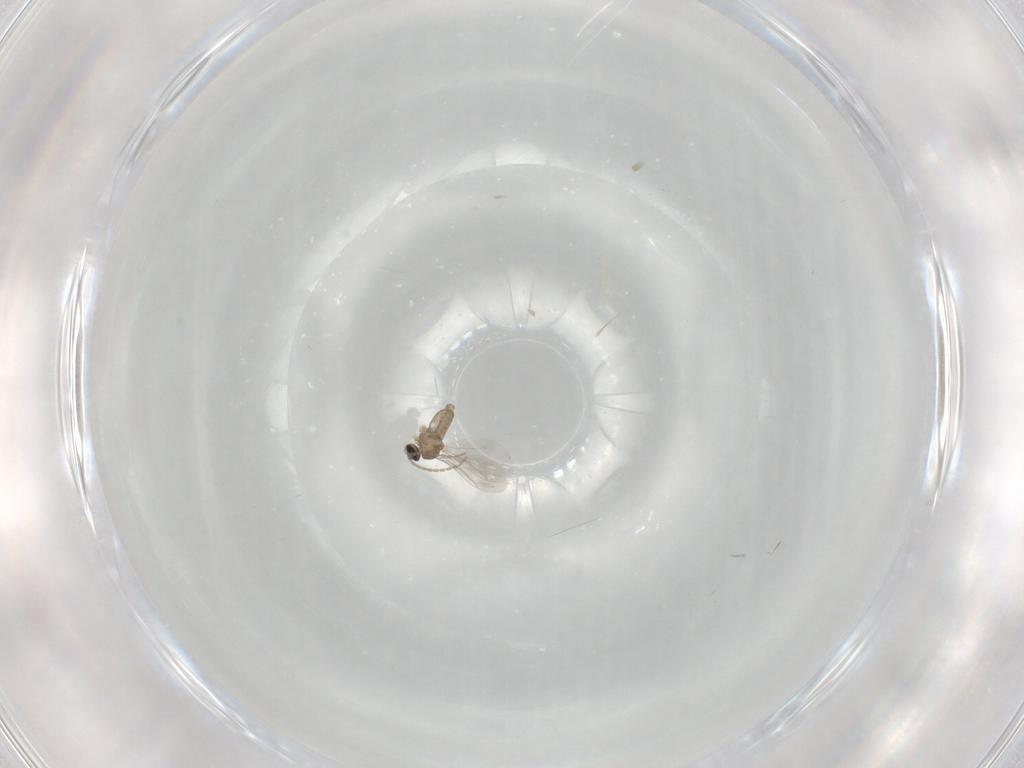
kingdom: Animalia
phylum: Arthropoda
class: Insecta
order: Diptera
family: Cecidomyiidae
